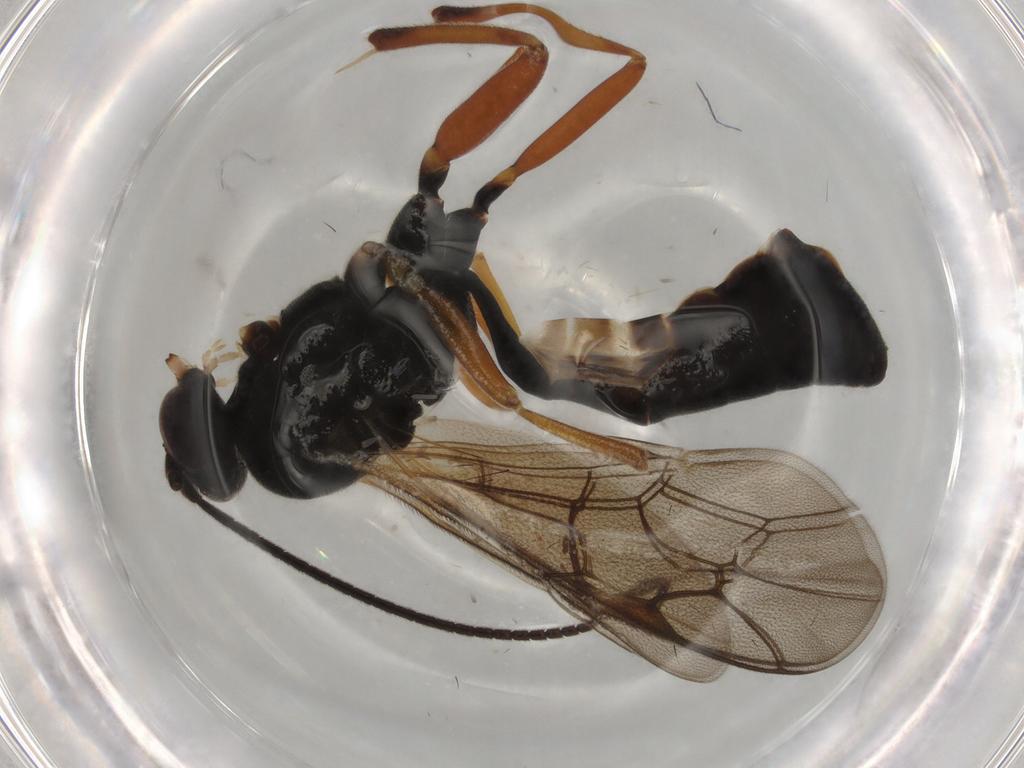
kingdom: Animalia
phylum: Arthropoda
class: Insecta
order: Hymenoptera
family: Ichneumonidae
